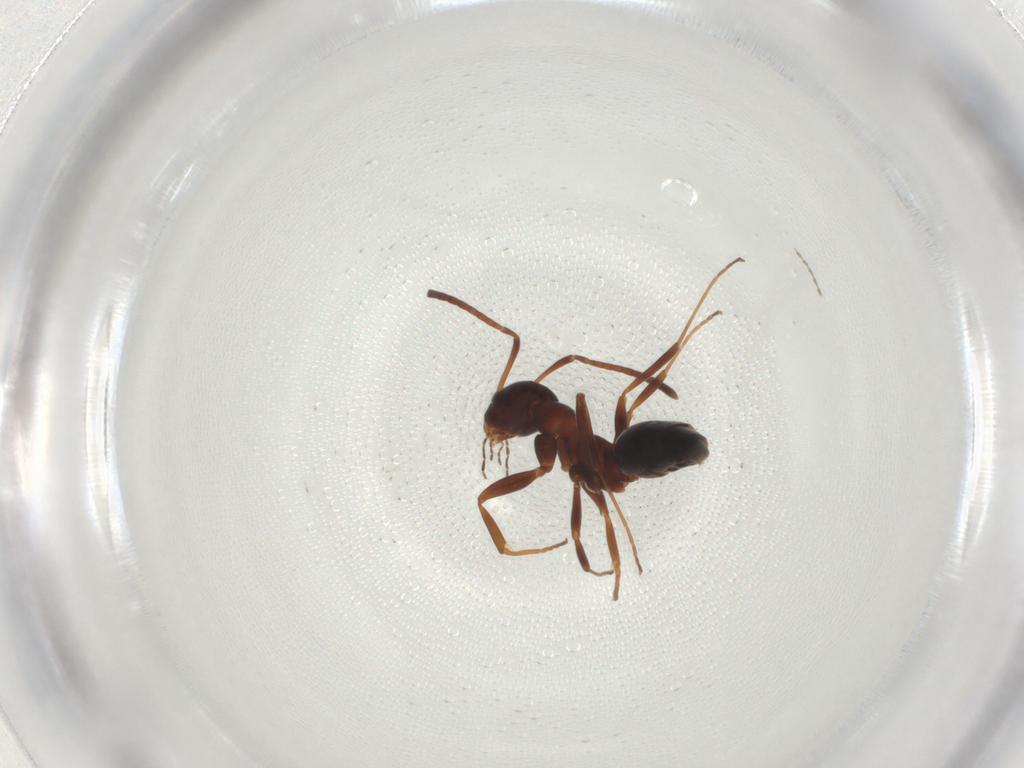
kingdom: Animalia
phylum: Arthropoda
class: Insecta
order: Hymenoptera
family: Formicidae
